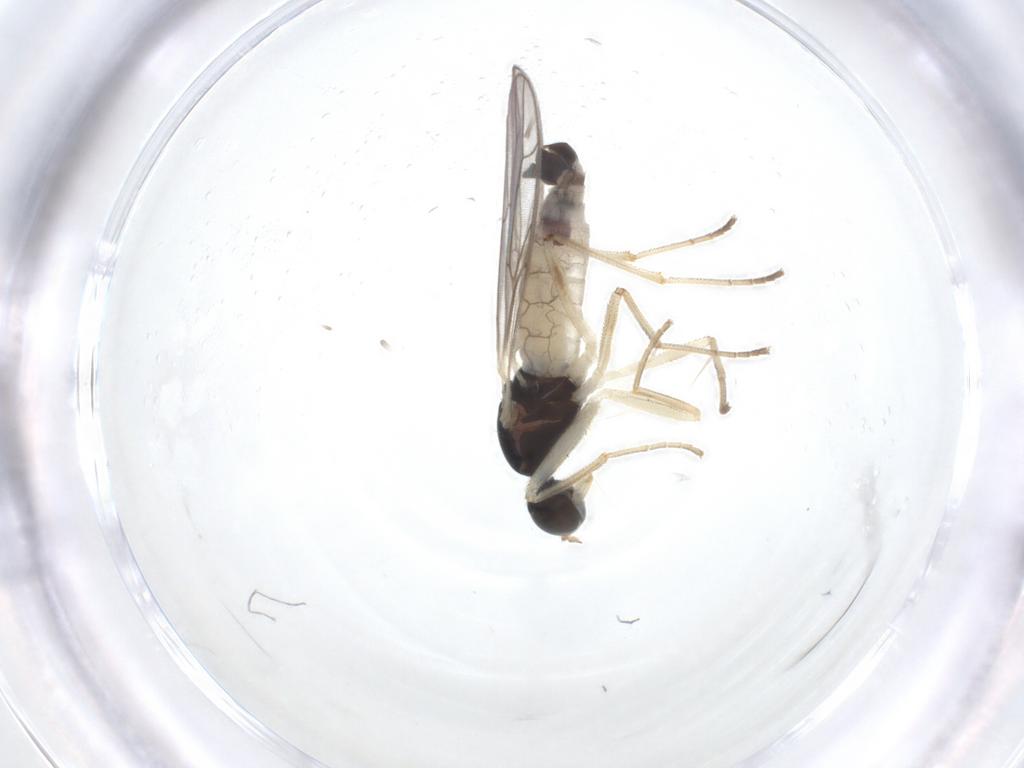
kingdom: Animalia
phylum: Arthropoda
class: Insecta
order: Diptera
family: Empididae
